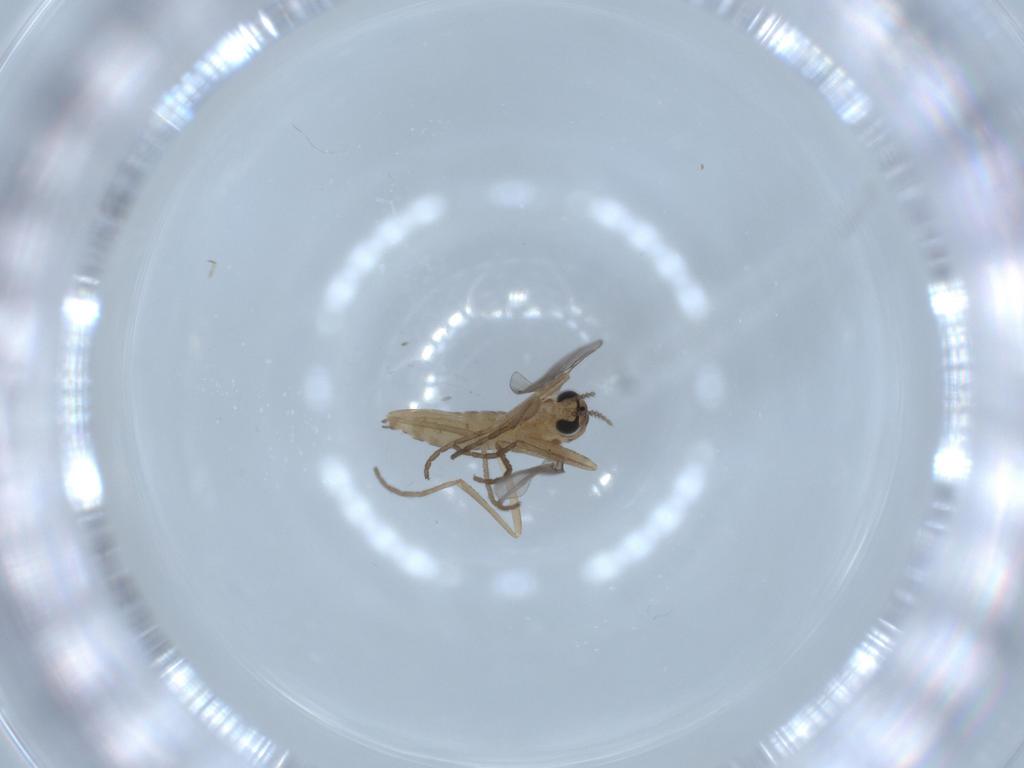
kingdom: Animalia
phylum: Arthropoda
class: Insecta
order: Diptera
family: Cecidomyiidae
